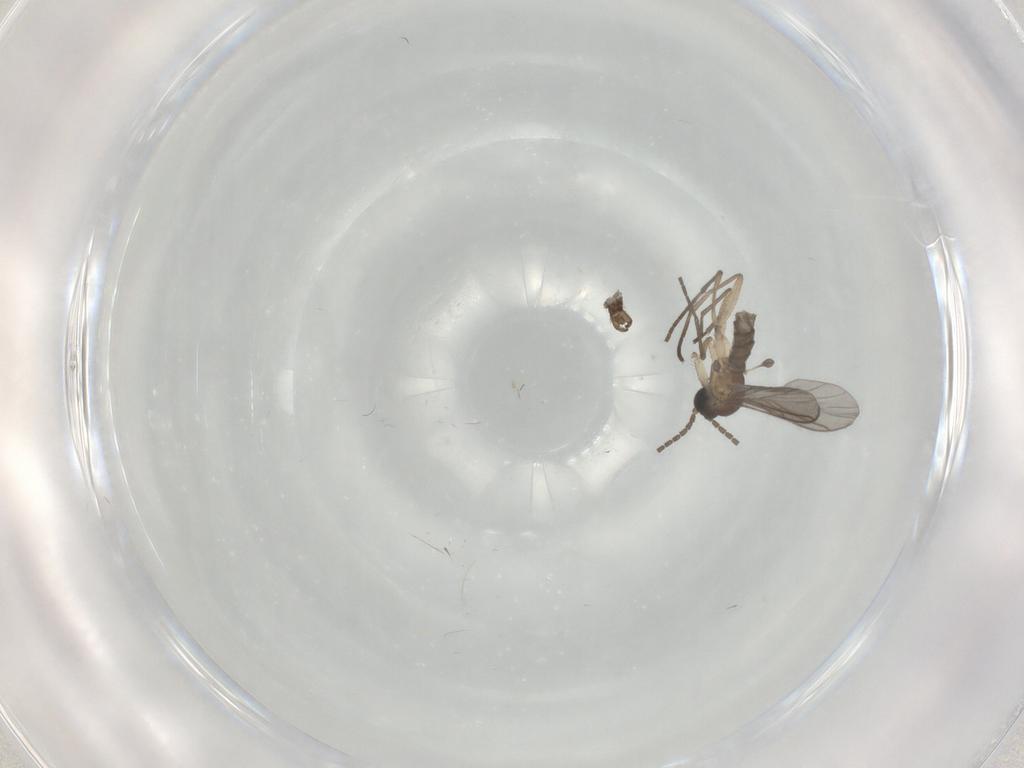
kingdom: Animalia
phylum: Arthropoda
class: Insecta
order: Diptera
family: Sciaridae
